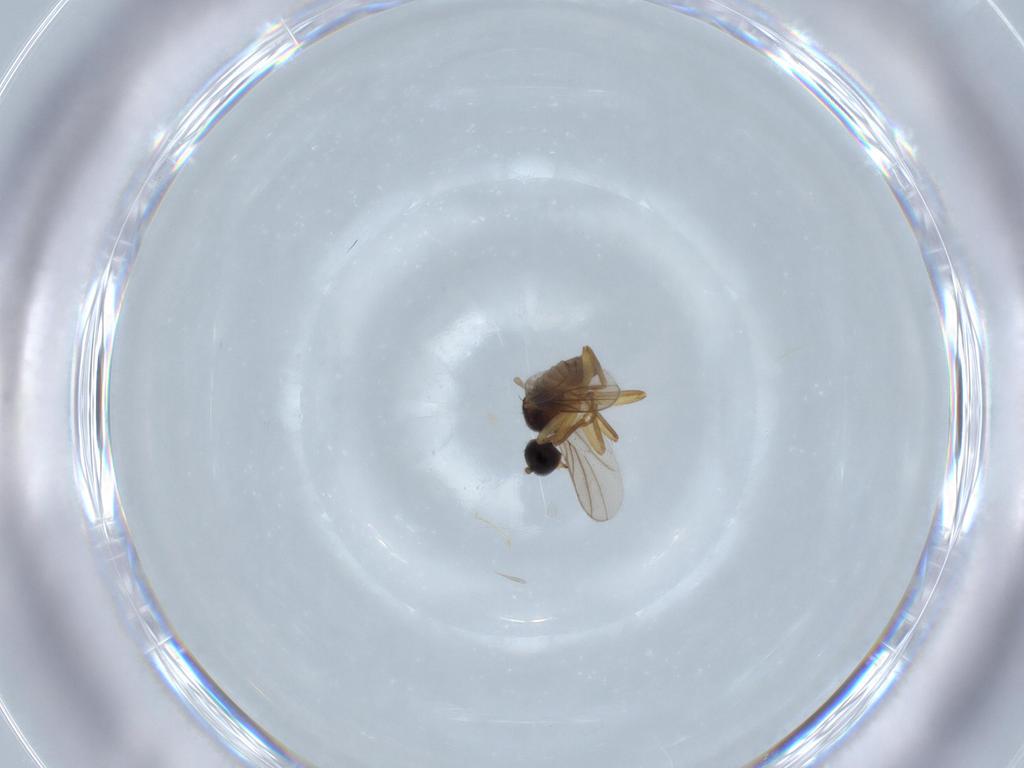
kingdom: Animalia
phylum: Arthropoda
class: Insecta
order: Diptera
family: Hybotidae
